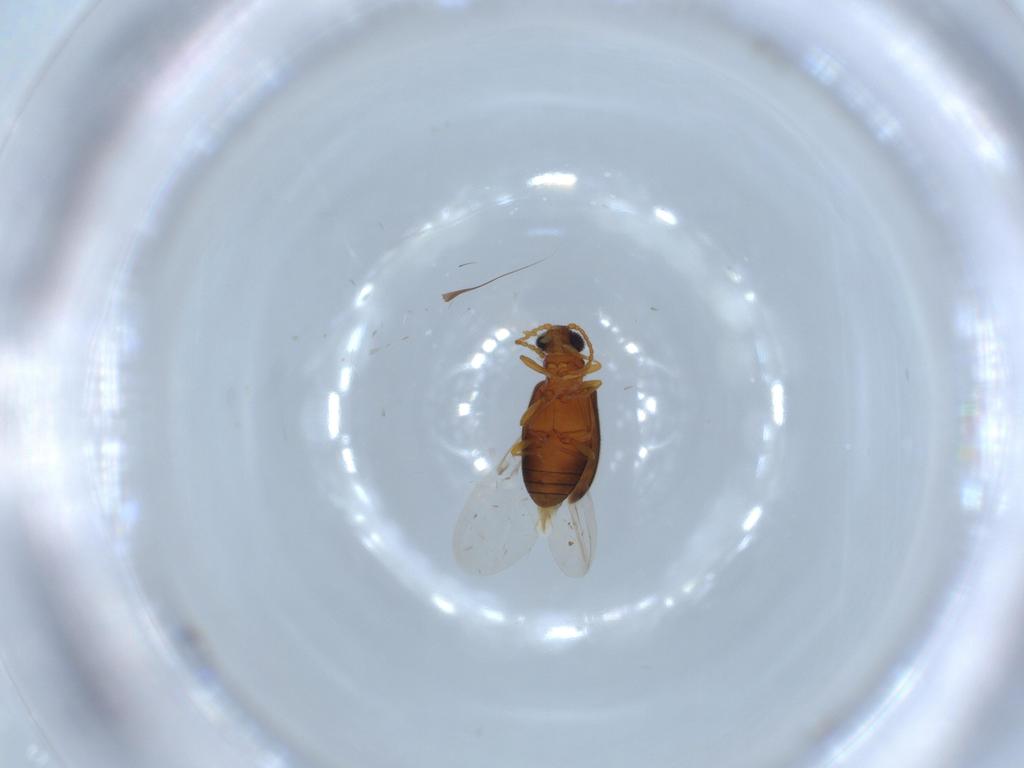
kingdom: Animalia
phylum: Arthropoda
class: Insecta
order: Coleoptera
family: Aderidae
